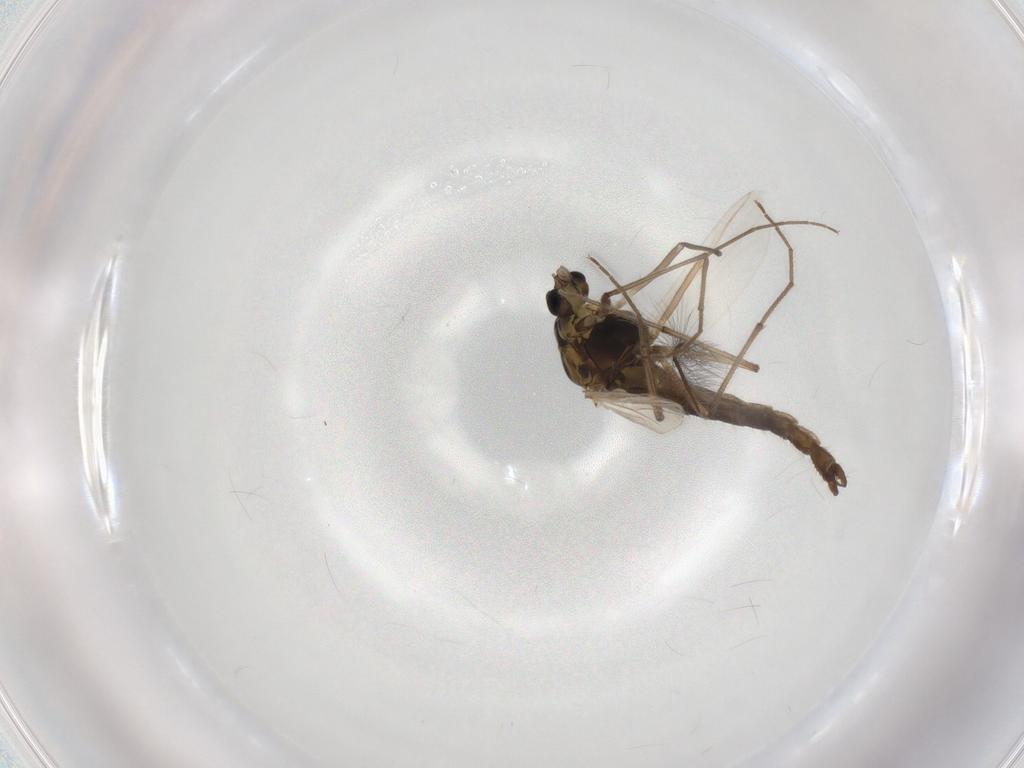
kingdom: Animalia
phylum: Arthropoda
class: Insecta
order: Diptera
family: Chironomidae
